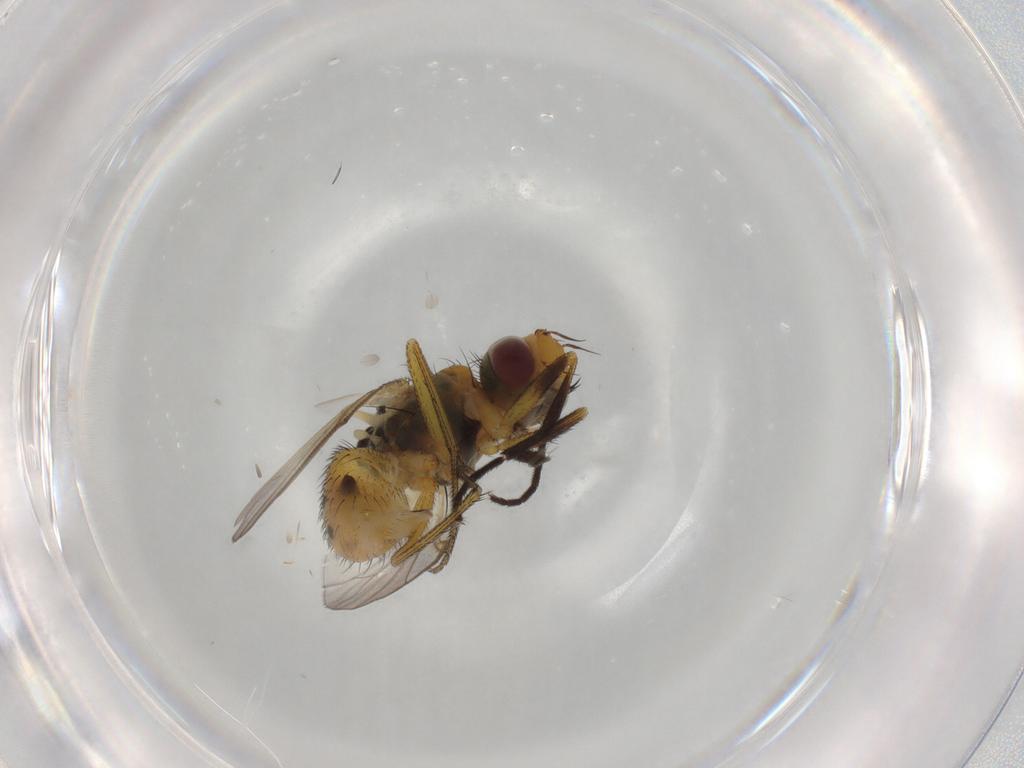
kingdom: Animalia
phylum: Arthropoda
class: Insecta
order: Diptera
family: Muscidae
